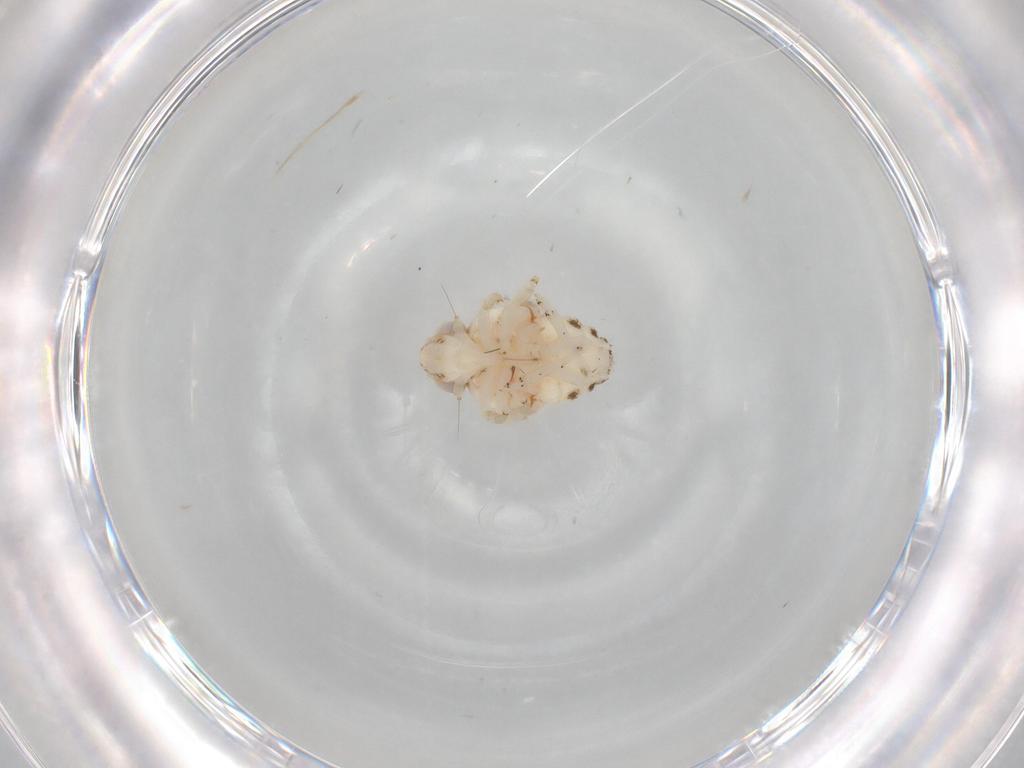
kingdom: Animalia
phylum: Arthropoda
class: Insecta
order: Hemiptera
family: Nogodinidae
